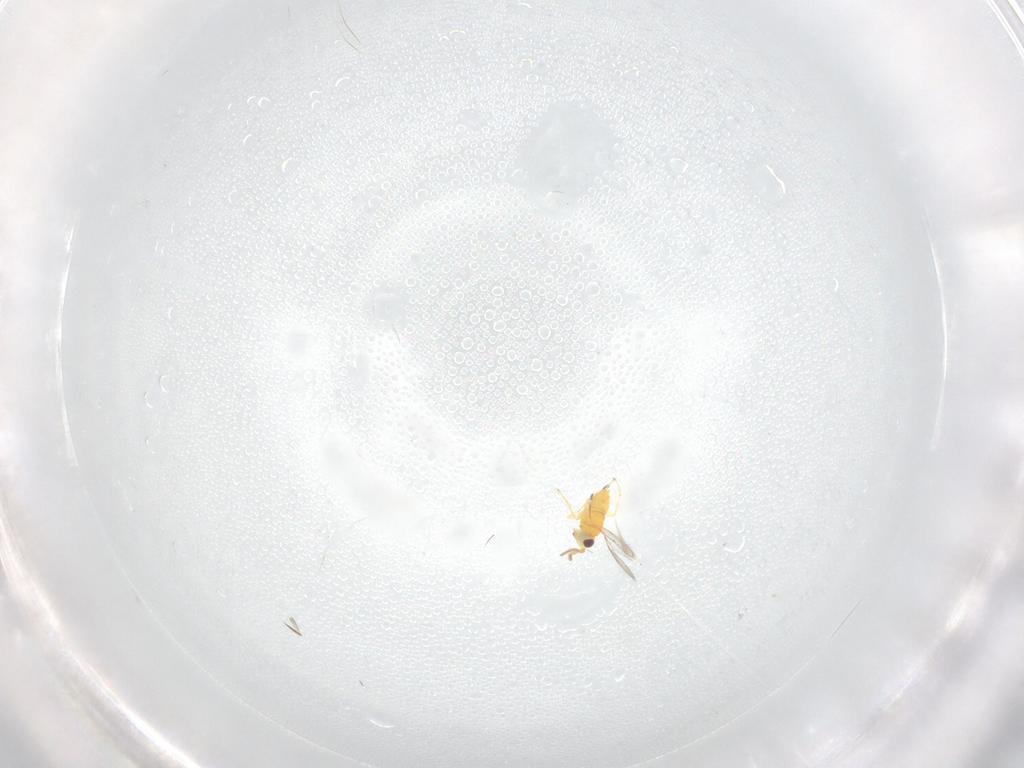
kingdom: Animalia
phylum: Arthropoda
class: Insecta
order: Hymenoptera
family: Aphelinidae
